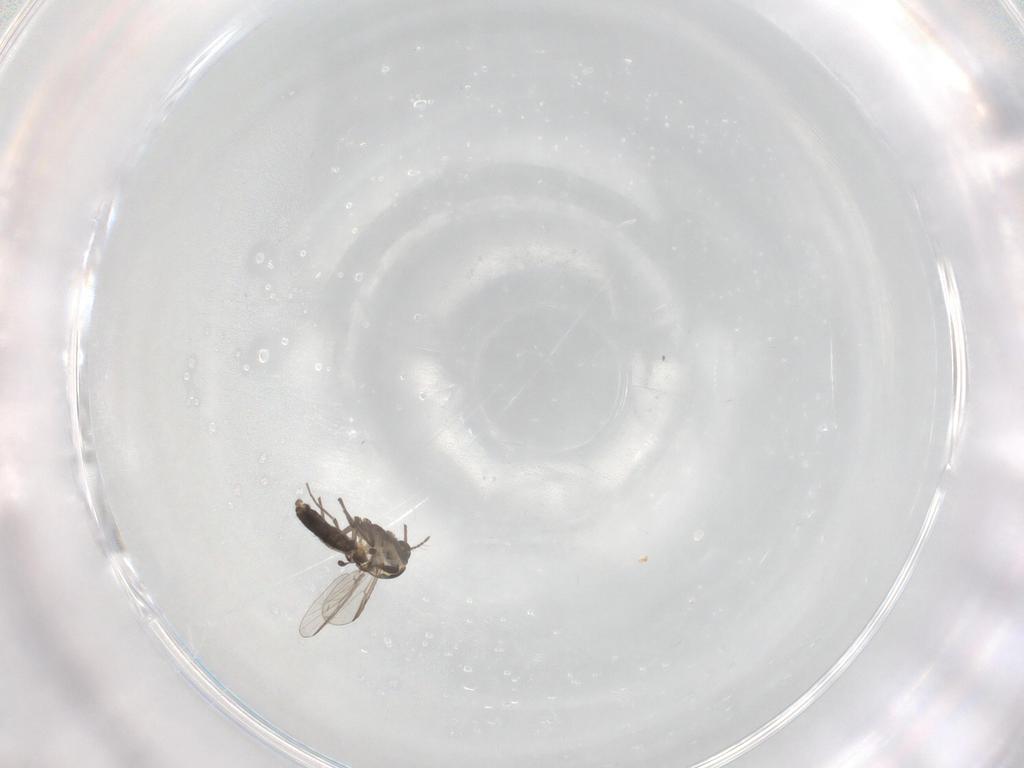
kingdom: Animalia
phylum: Arthropoda
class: Insecta
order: Diptera
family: Chironomidae
